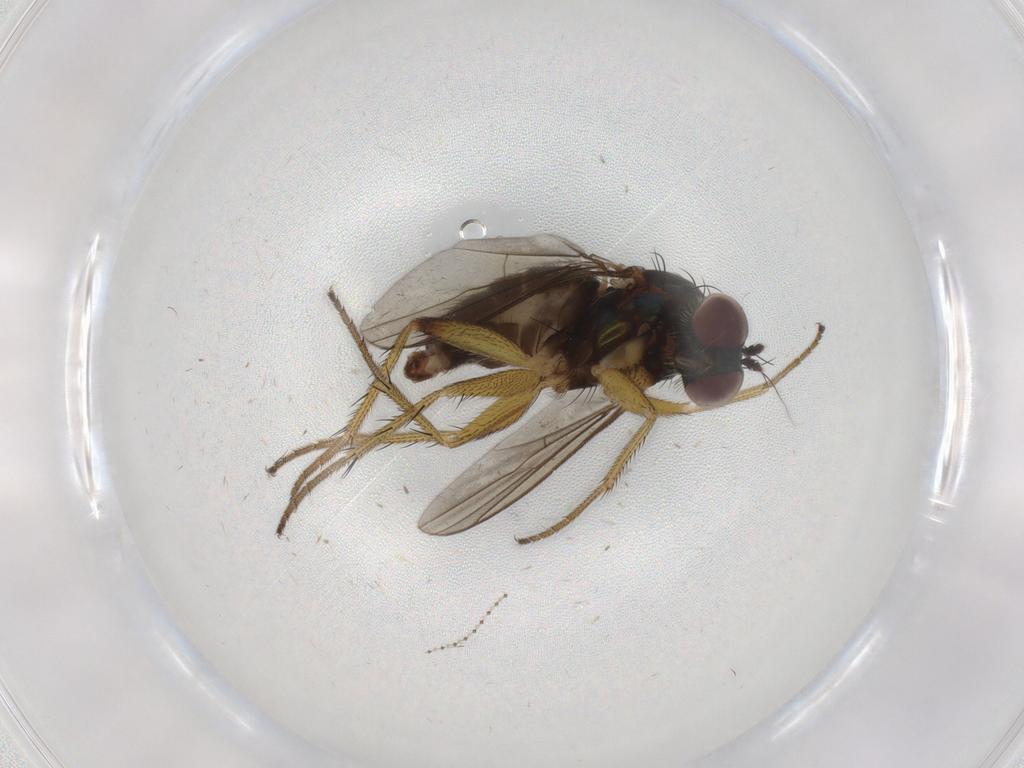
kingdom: Animalia
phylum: Arthropoda
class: Insecta
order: Diptera
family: Dolichopodidae
